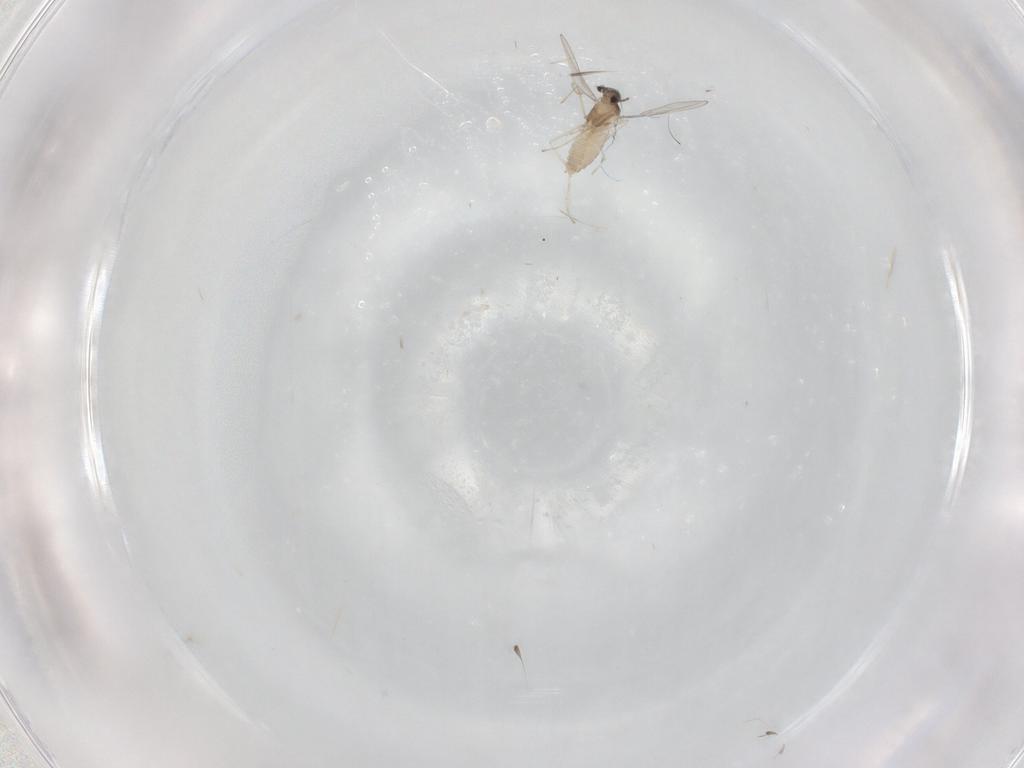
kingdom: Animalia
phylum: Arthropoda
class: Insecta
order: Diptera
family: Cecidomyiidae
